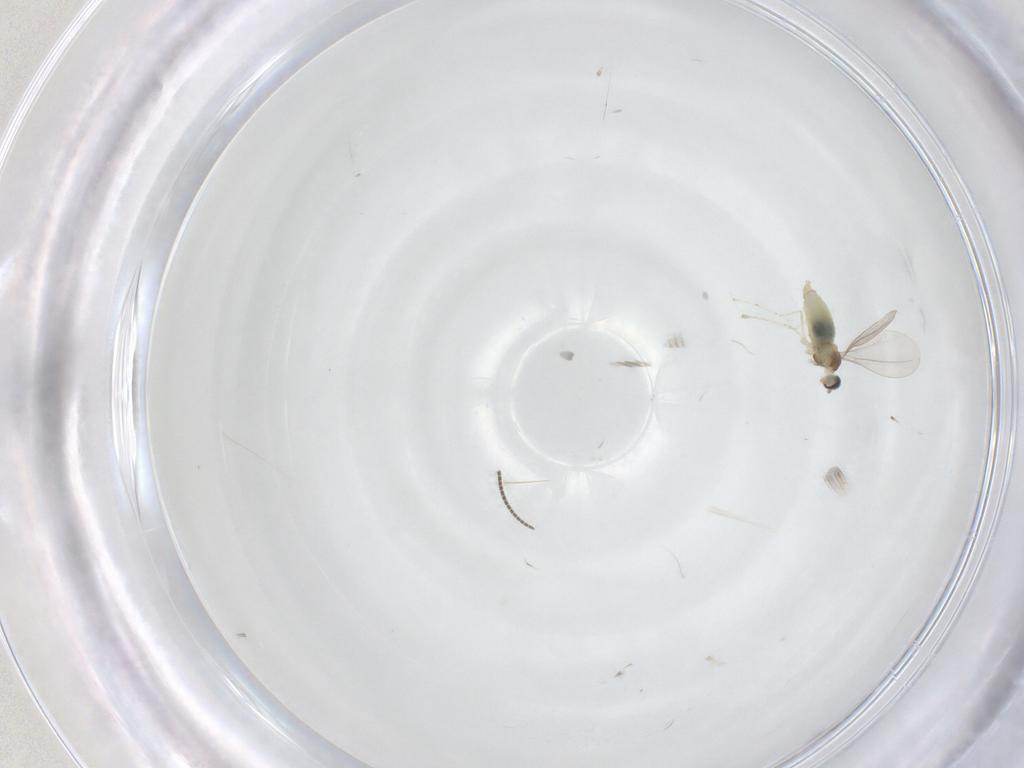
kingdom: Animalia
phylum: Arthropoda
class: Insecta
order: Diptera
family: Cecidomyiidae
